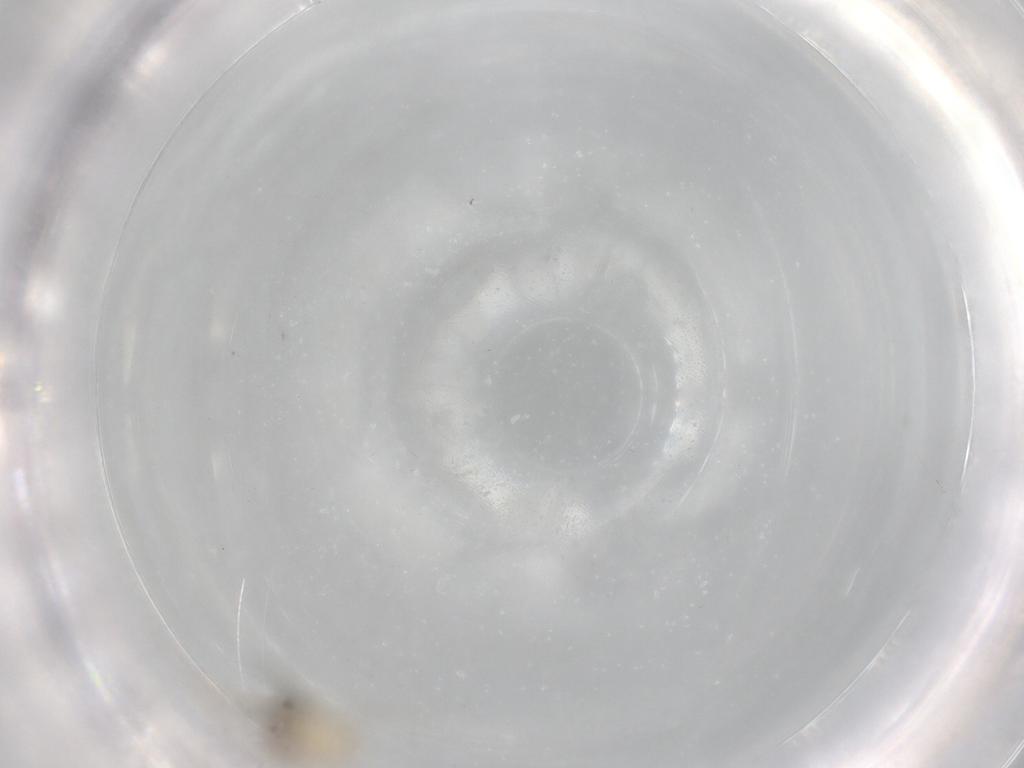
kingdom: Animalia
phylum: Arthropoda
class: Insecta
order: Diptera
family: Cecidomyiidae
